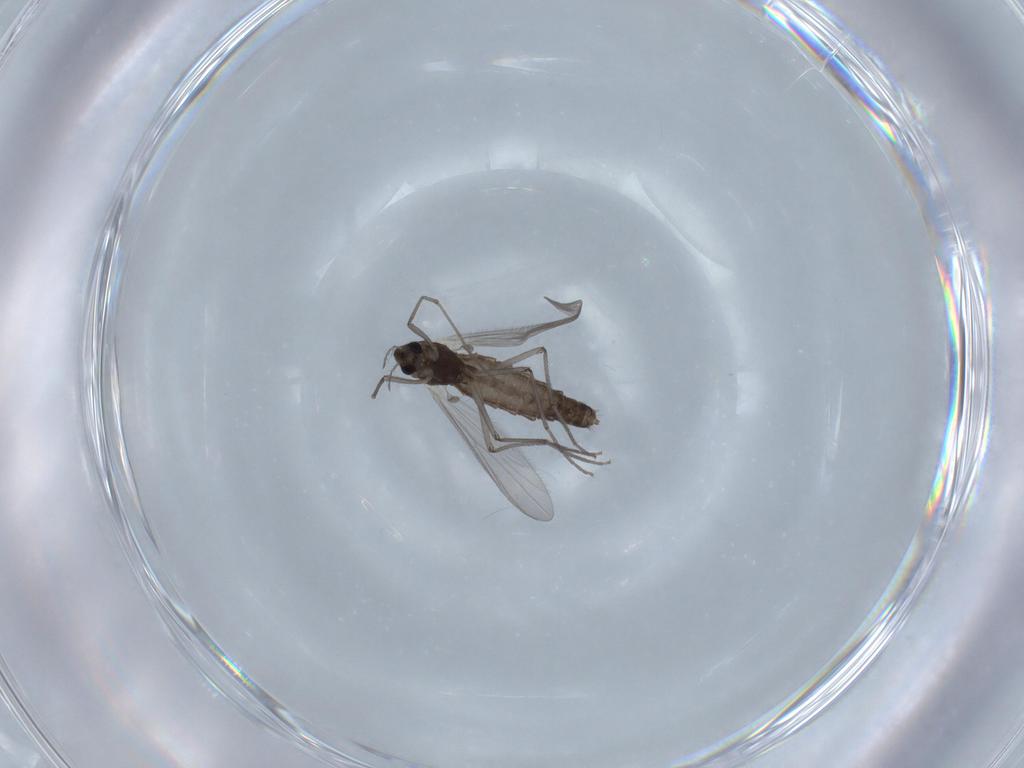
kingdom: Animalia
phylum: Arthropoda
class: Insecta
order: Diptera
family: Chironomidae
